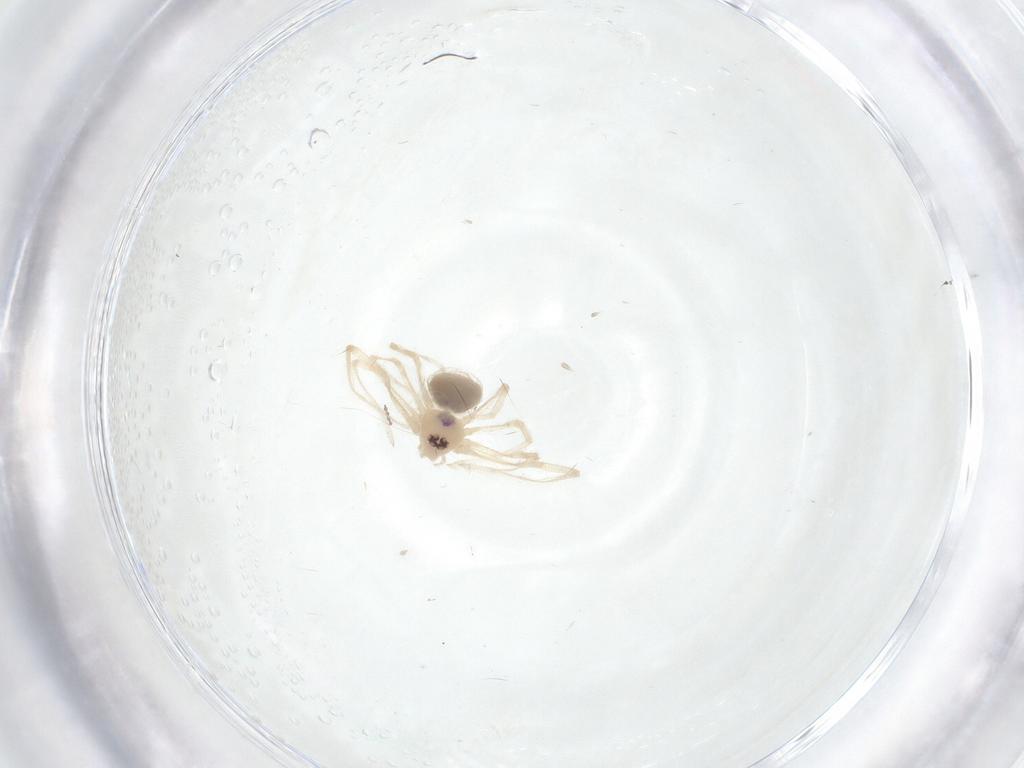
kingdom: Animalia
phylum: Arthropoda
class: Arachnida
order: Araneae
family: Pholcidae
